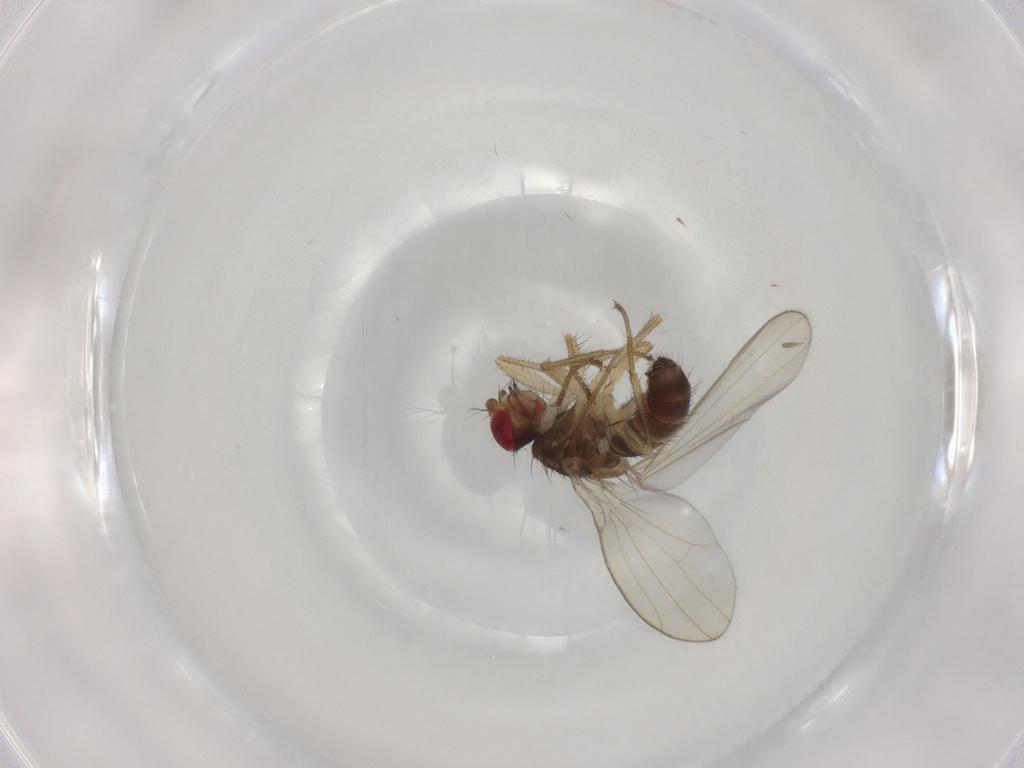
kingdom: Animalia
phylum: Arthropoda
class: Insecta
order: Diptera
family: Drosophilidae
